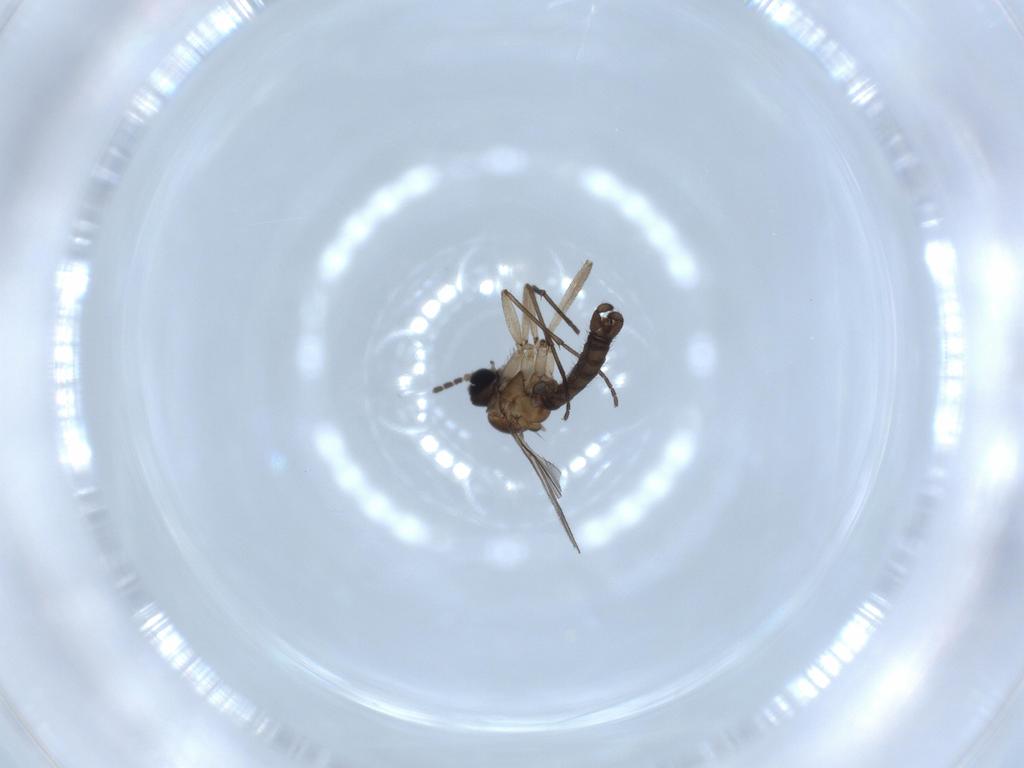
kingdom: Animalia
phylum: Arthropoda
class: Insecta
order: Diptera
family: Sciaridae
